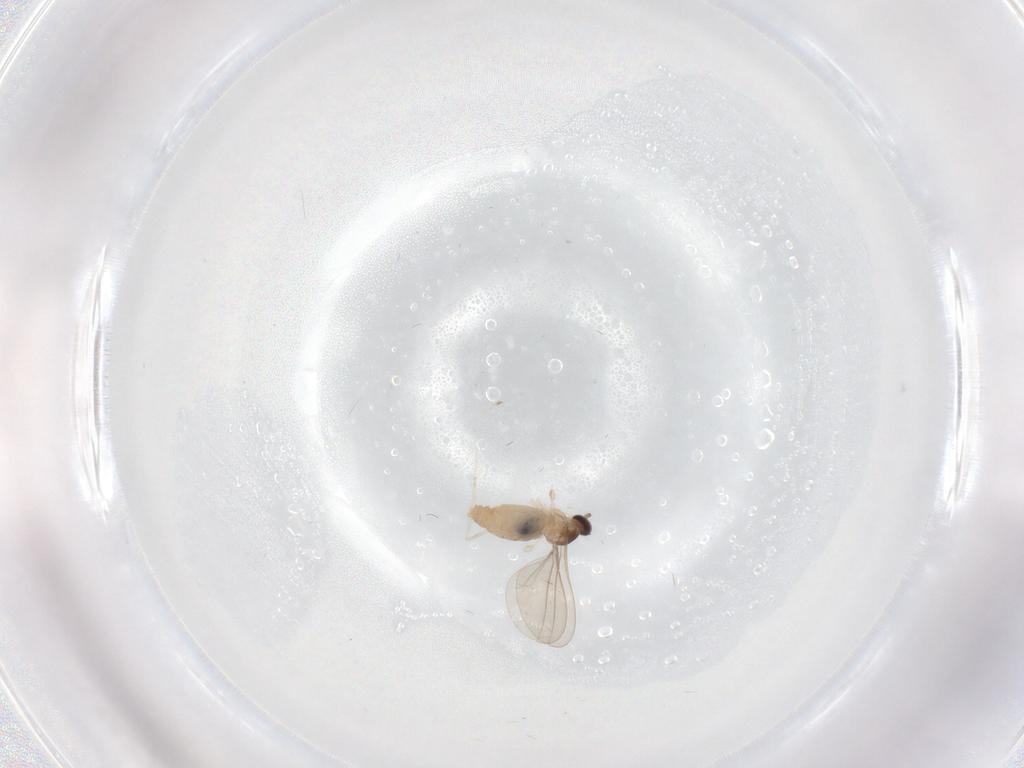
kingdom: Animalia
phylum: Arthropoda
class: Insecta
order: Diptera
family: Cecidomyiidae
